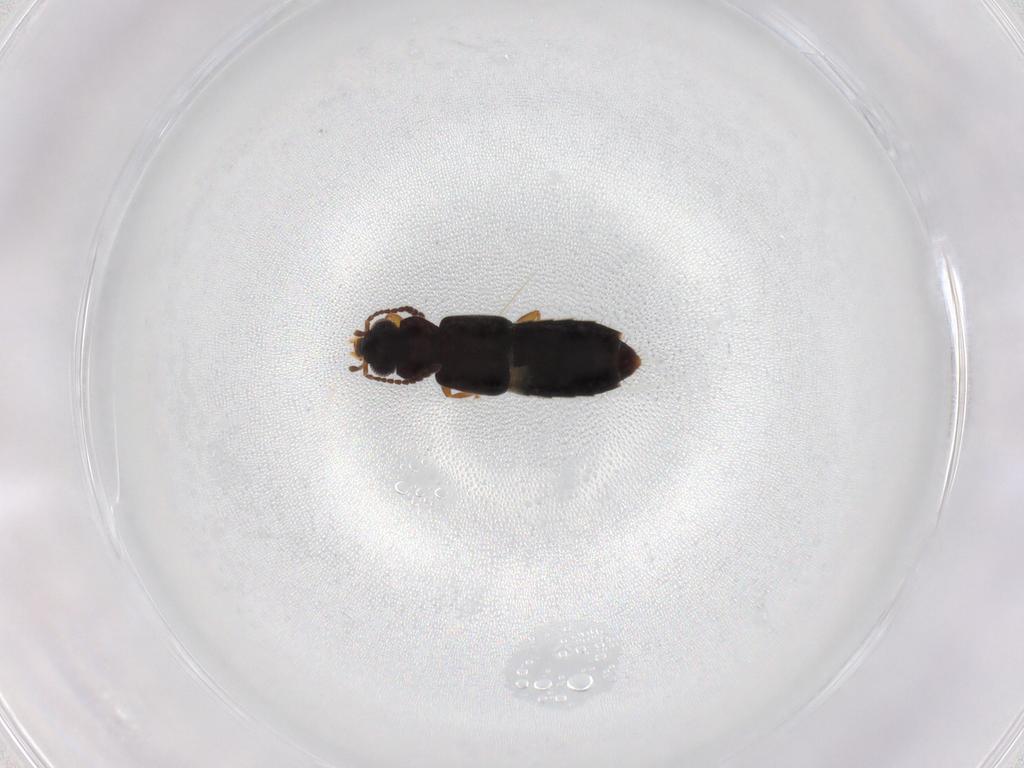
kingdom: Animalia
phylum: Arthropoda
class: Insecta
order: Coleoptera
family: Staphylinidae
